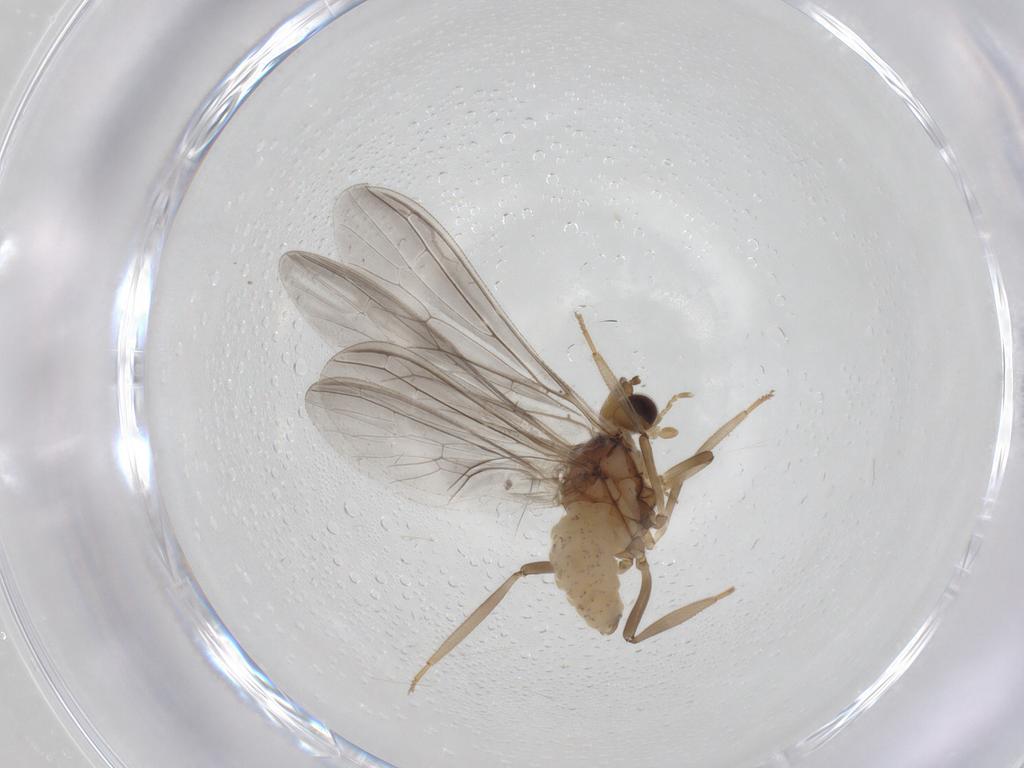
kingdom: Animalia
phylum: Arthropoda
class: Insecta
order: Neuroptera
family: Coniopterygidae
